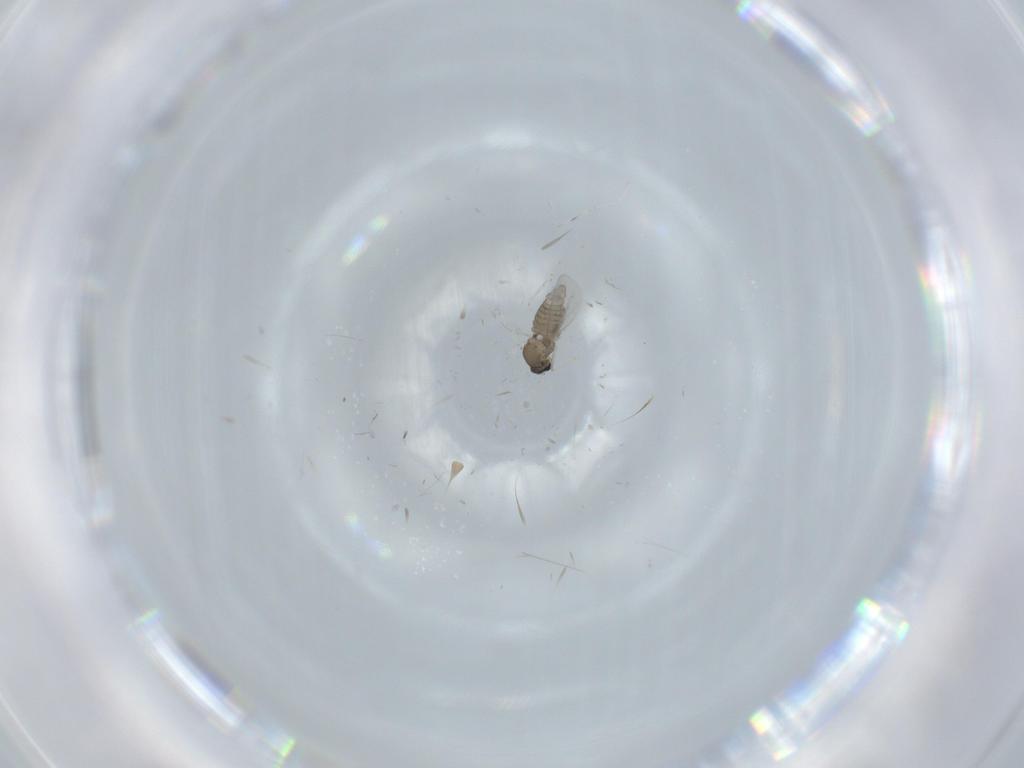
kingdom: Animalia
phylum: Arthropoda
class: Insecta
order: Diptera
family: Cecidomyiidae
